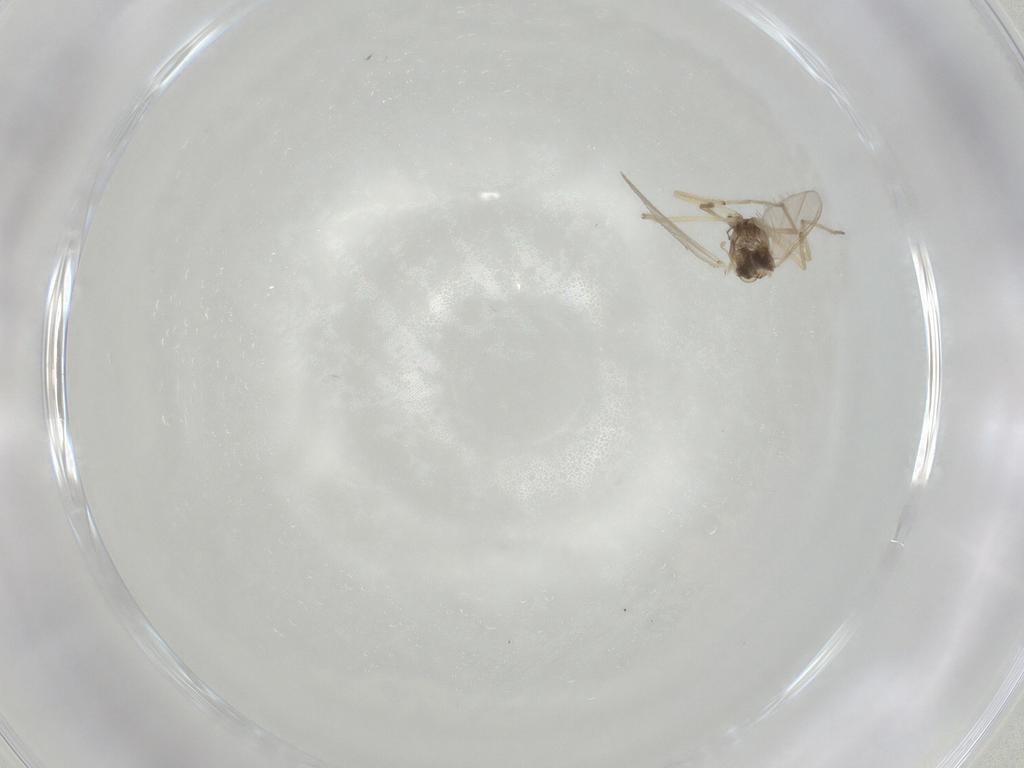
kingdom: Animalia
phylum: Arthropoda
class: Insecta
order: Diptera
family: Chironomidae
